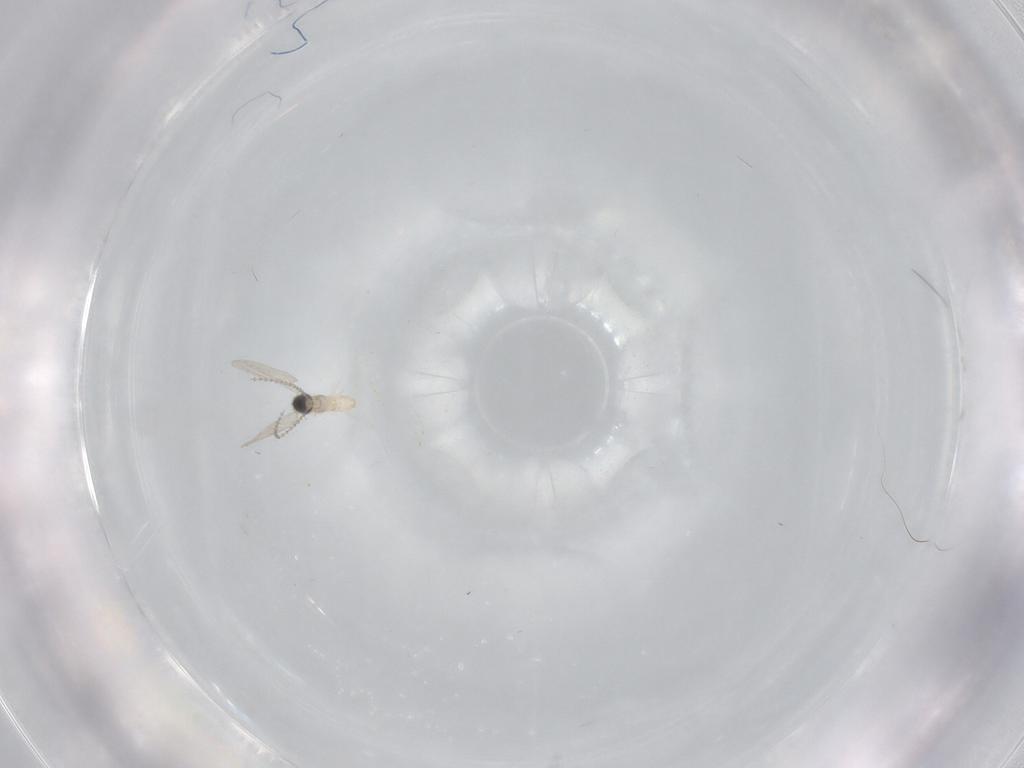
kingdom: Animalia
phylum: Arthropoda
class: Insecta
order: Diptera
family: Cecidomyiidae
